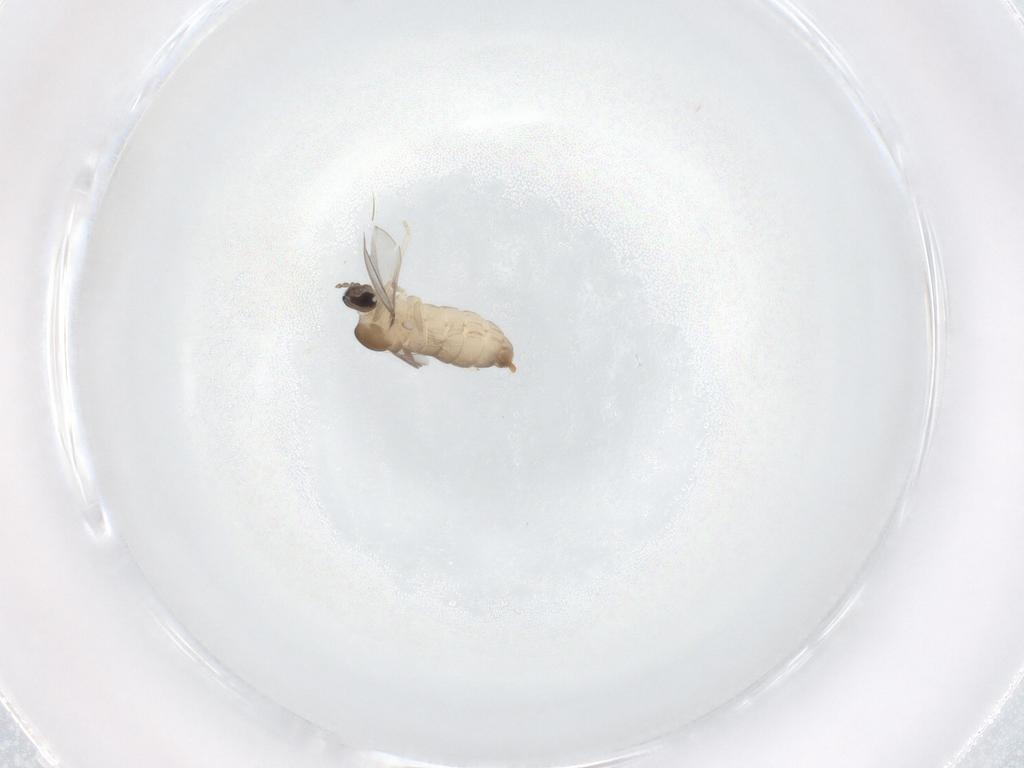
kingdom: Animalia
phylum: Arthropoda
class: Insecta
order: Diptera
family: Cecidomyiidae
